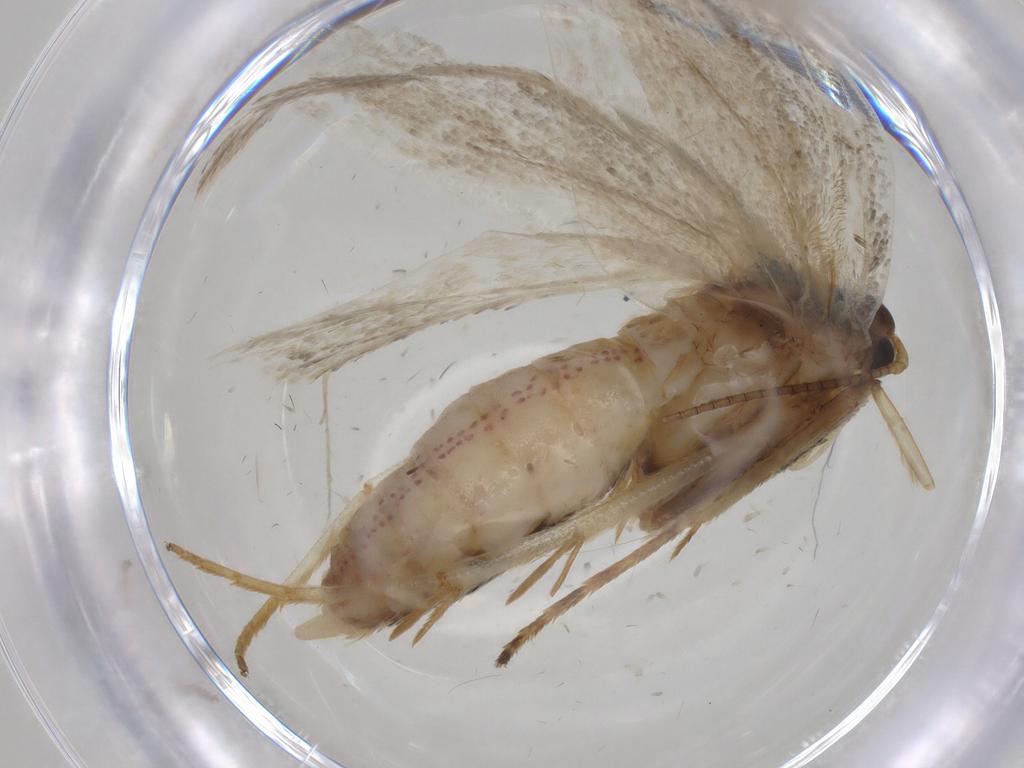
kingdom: Animalia
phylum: Arthropoda
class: Insecta
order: Lepidoptera
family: Depressariidae
